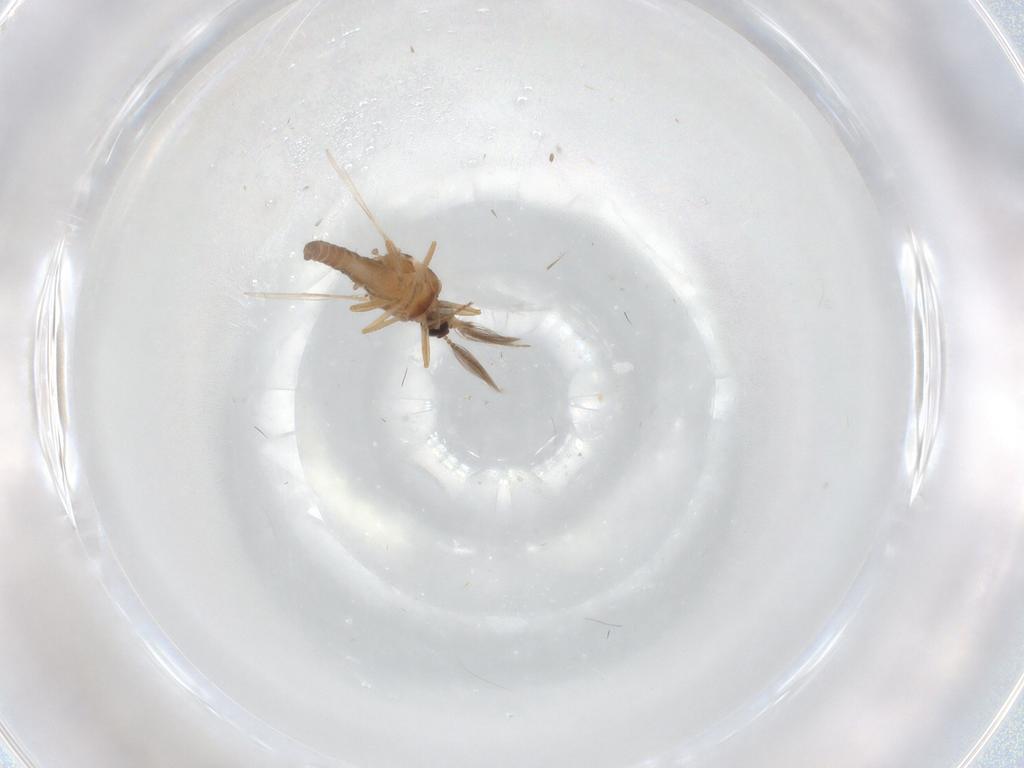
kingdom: Animalia
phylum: Arthropoda
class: Insecta
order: Diptera
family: Ceratopogonidae
